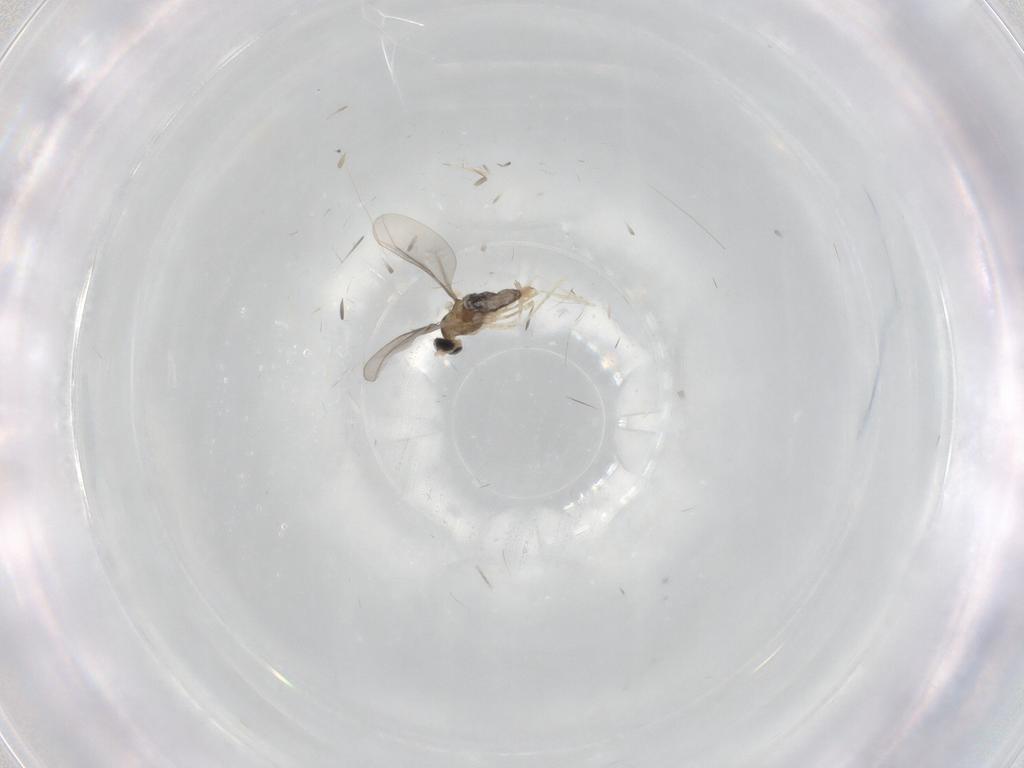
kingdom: Animalia
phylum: Arthropoda
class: Insecta
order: Diptera
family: Cecidomyiidae
